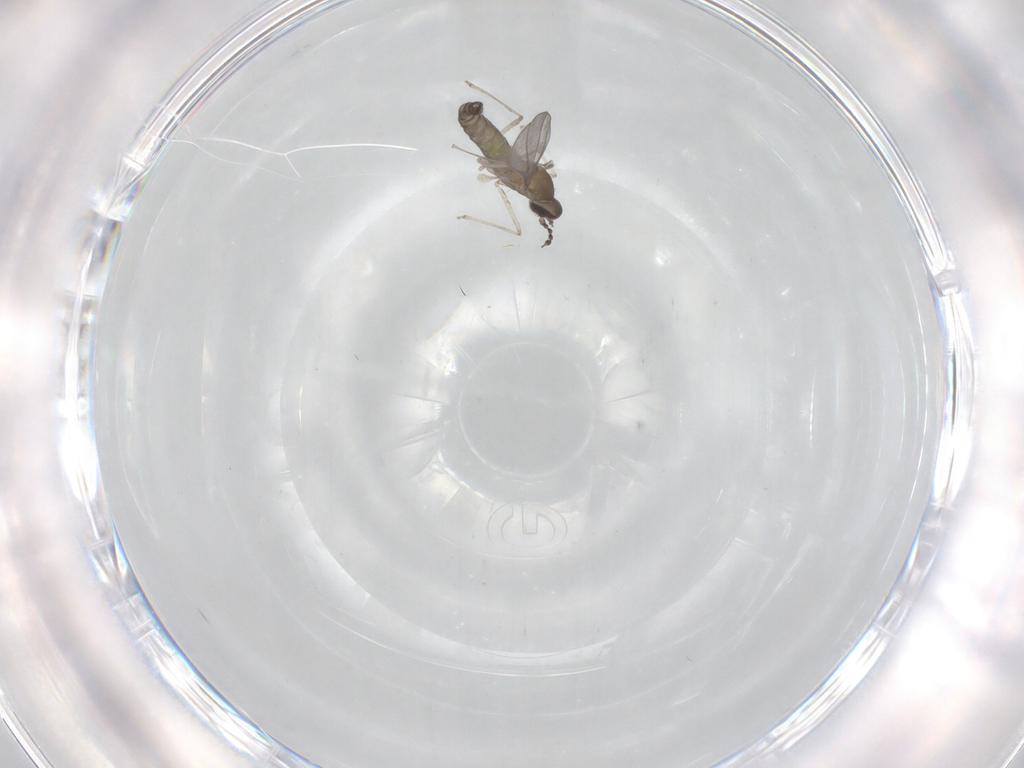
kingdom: Animalia
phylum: Arthropoda
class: Insecta
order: Diptera
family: Cecidomyiidae
